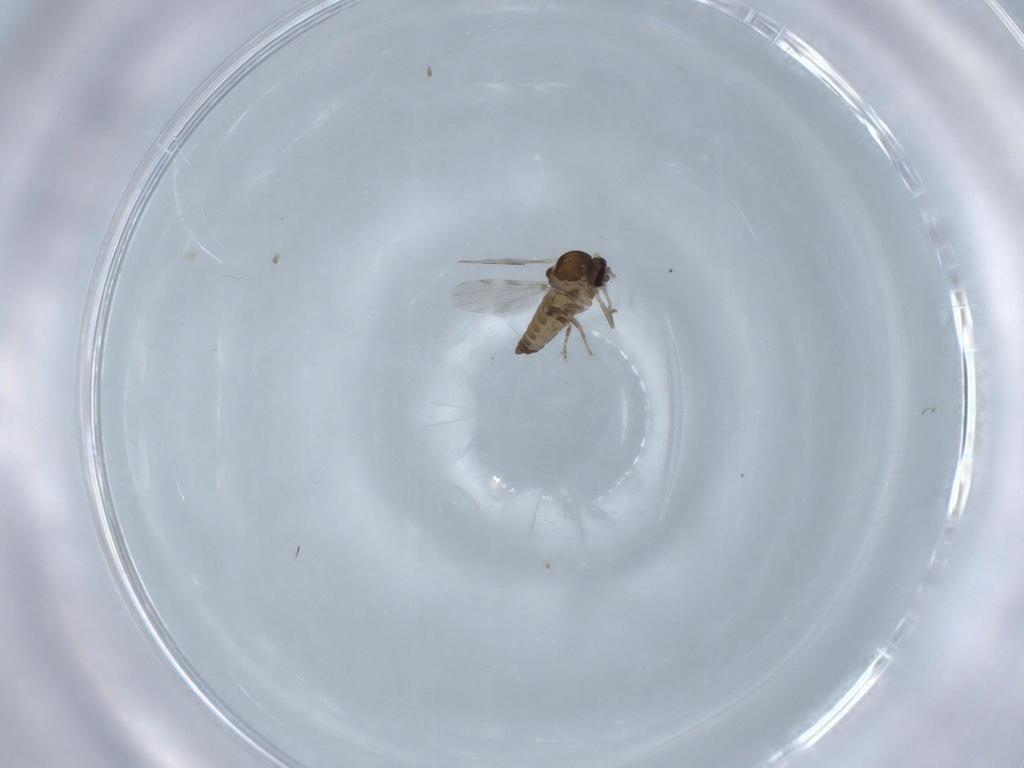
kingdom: Animalia
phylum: Arthropoda
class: Insecta
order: Diptera
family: Ceratopogonidae
